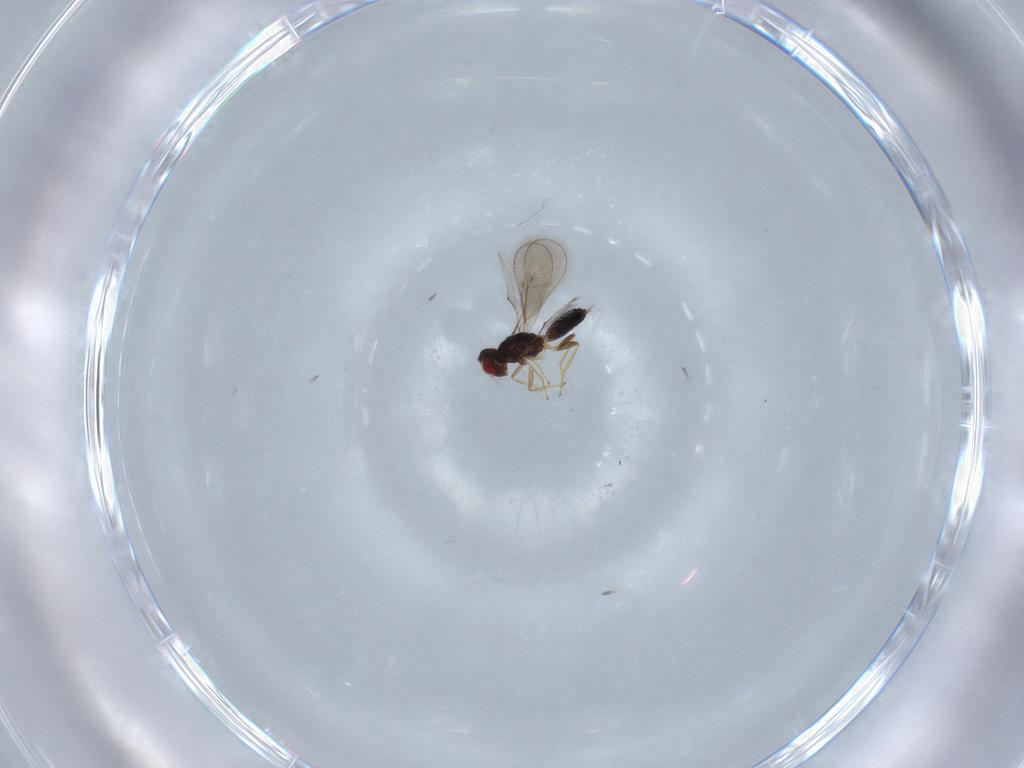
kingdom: Animalia
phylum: Arthropoda
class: Insecta
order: Hymenoptera
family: Eulophidae
